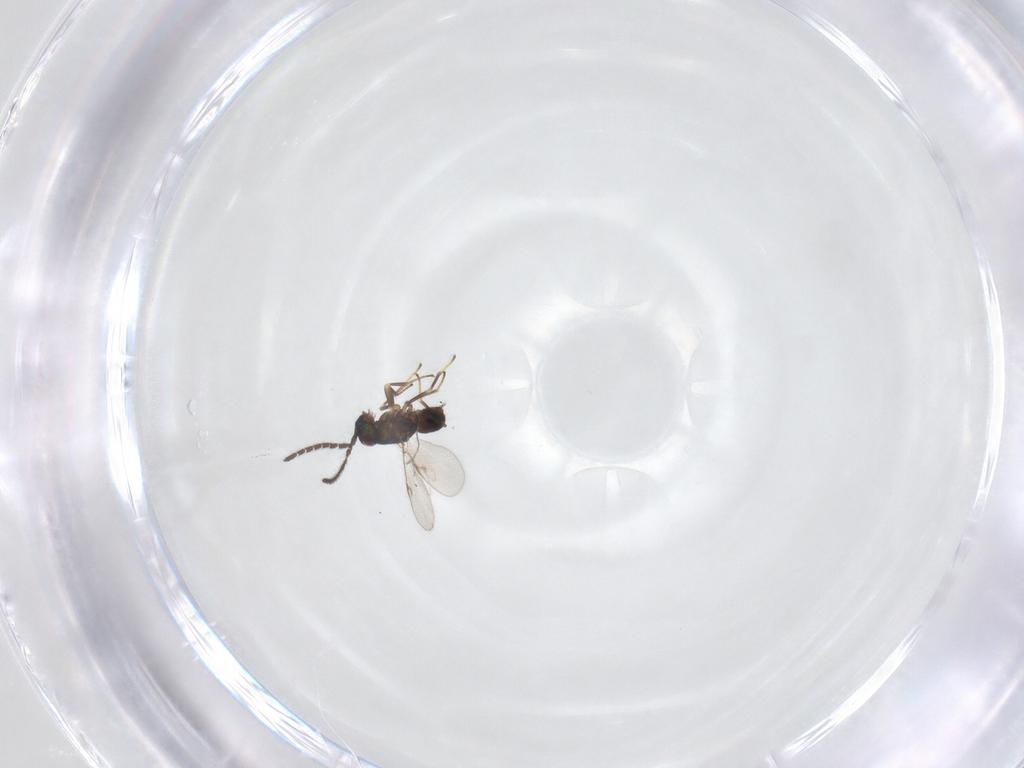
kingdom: Animalia
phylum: Arthropoda
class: Insecta
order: Hymenoptera
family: Encyrtidae
